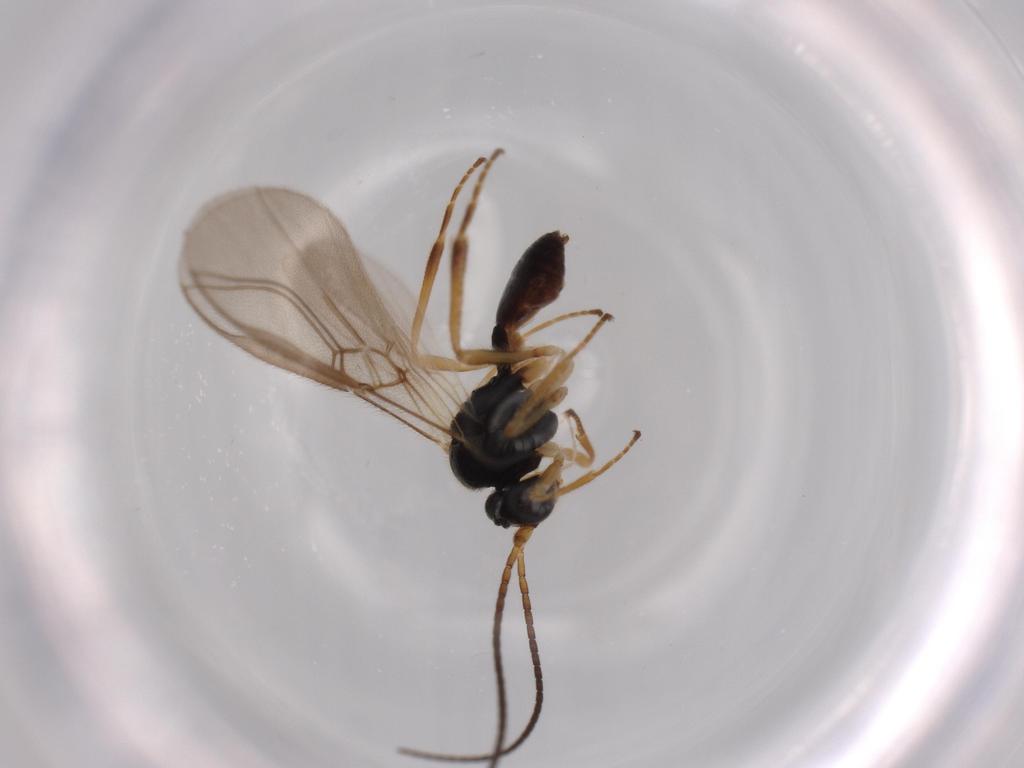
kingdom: Animalia
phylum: Arthropoda
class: Insecta
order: Hymenoptera
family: Braconidae
